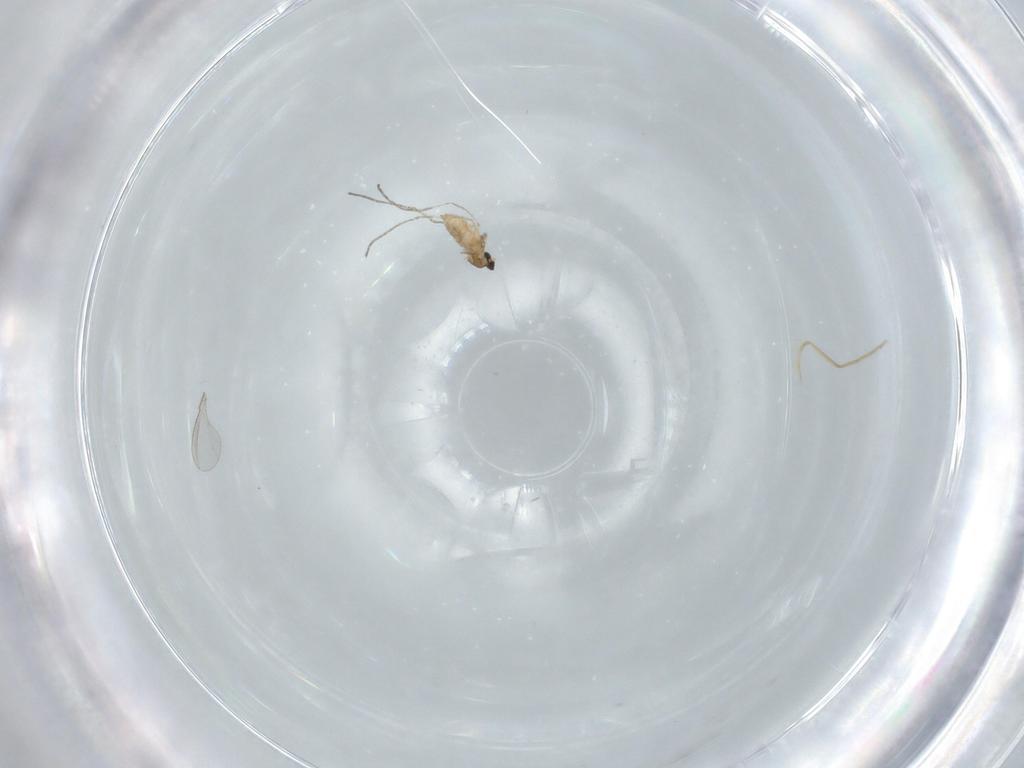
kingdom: Animalia
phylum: Arthropoda
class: Insecta
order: Diptera
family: Cecidomyiidae
